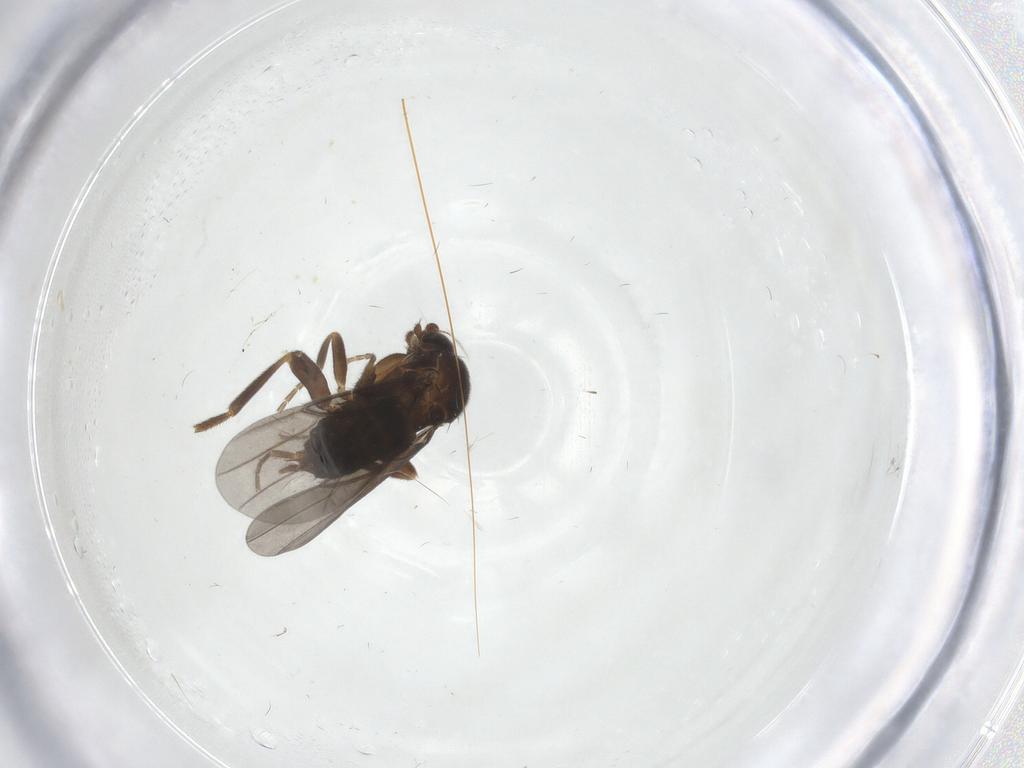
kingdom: Animalia
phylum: Arthropoda
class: Insecta
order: Diptera
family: Phoridae
